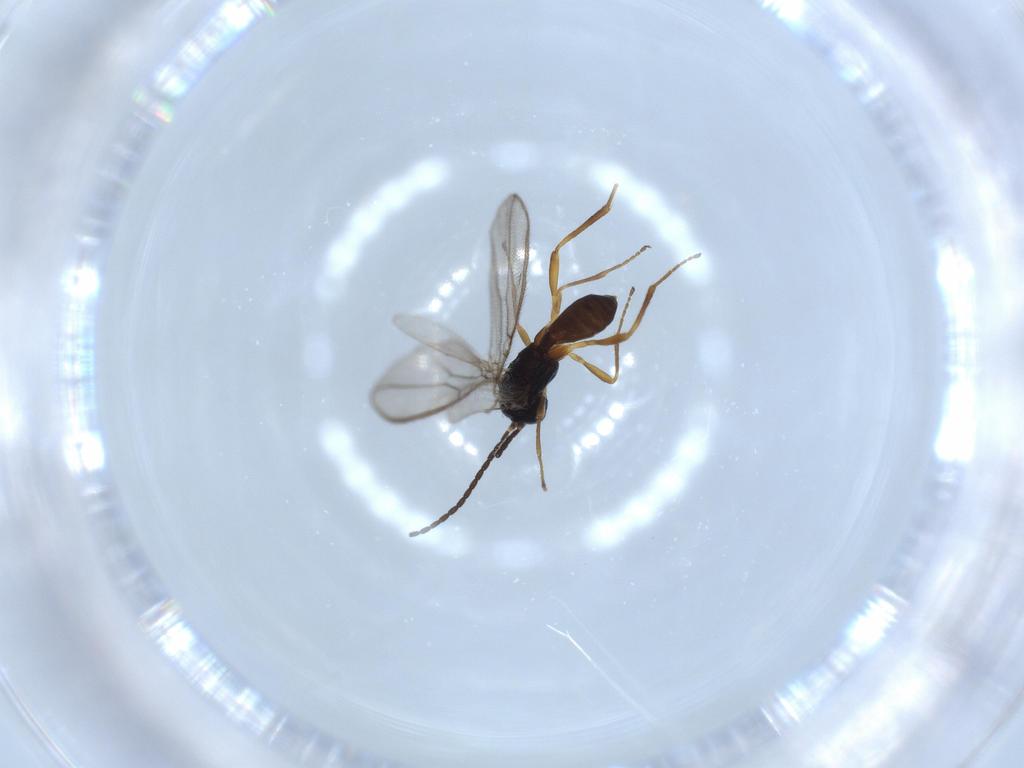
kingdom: Animalia
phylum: Arthropoda
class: Insecta
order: Hymenoptera
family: Braconidae
